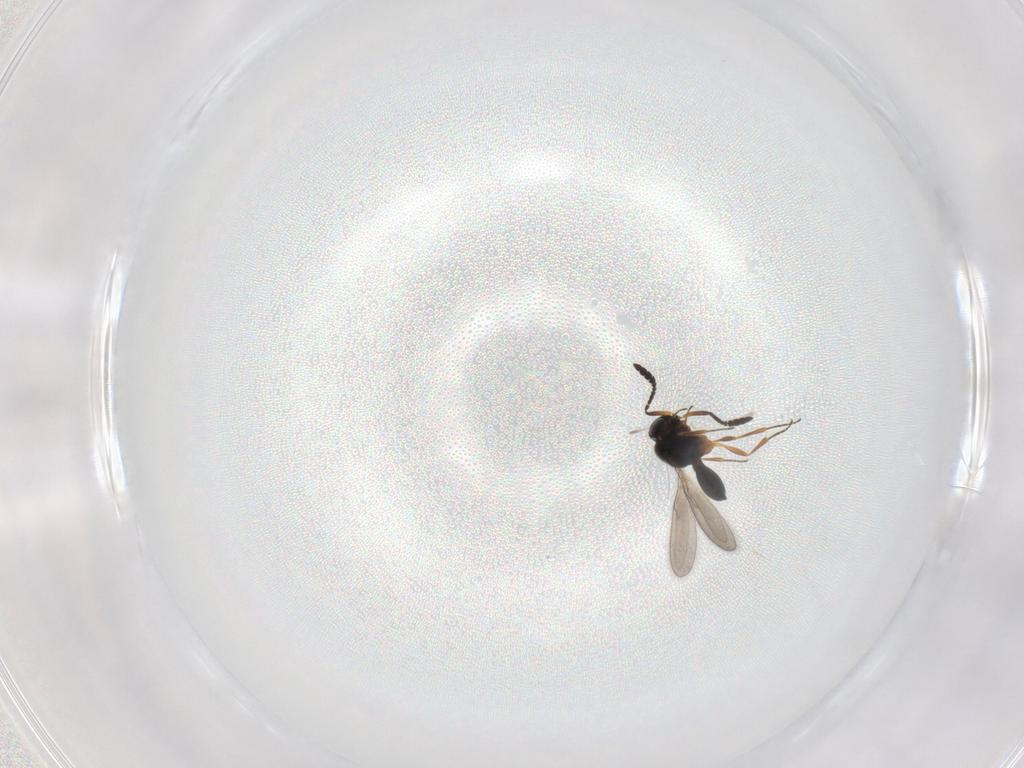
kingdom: Animalia
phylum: Arthropoda
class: Insecta
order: Hymenoptera
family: Scelionidae
